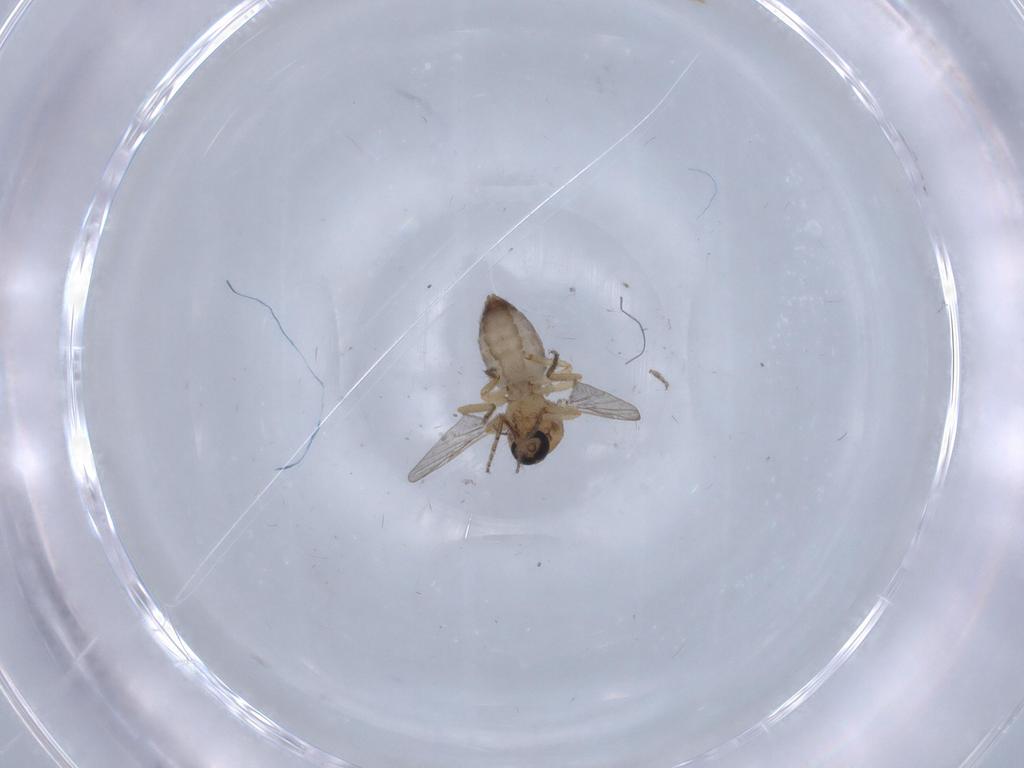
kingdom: Animalia
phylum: Arthropoda
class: Insecta
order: Diptera
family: Ceratopogonidae
